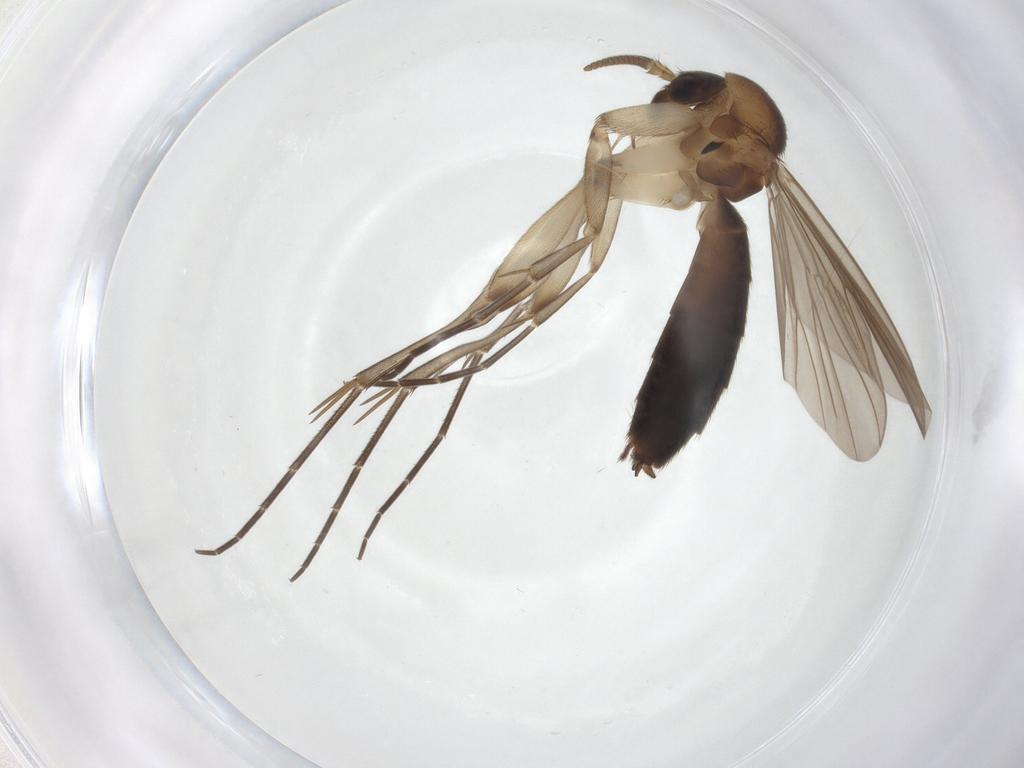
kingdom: Animalia
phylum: Arthropoda
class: Insecta
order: Diptera
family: Mycetophilidae
